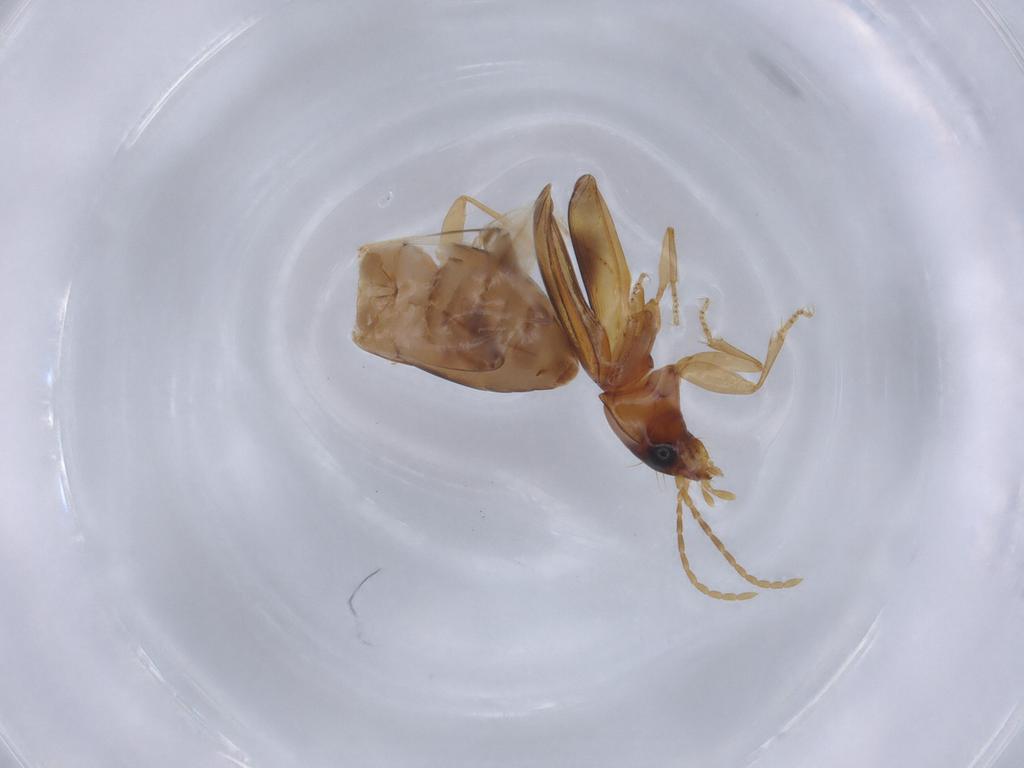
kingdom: Animalia
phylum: Arthropoda
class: Insecta
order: Coleoptera
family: Carabidae
